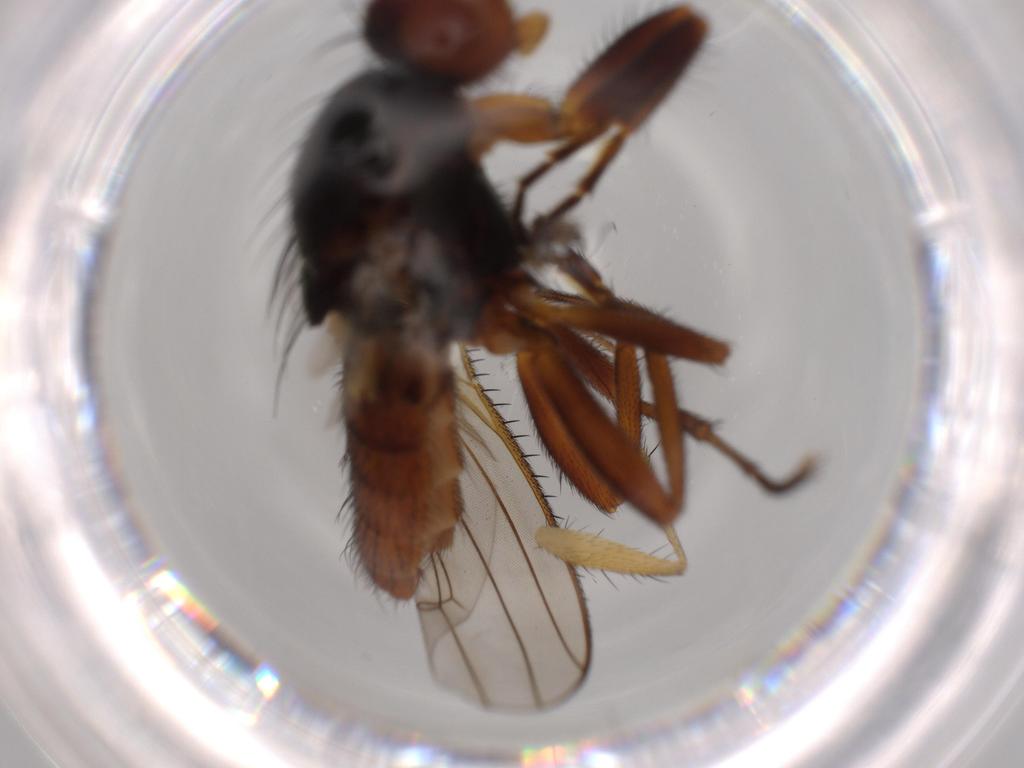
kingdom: Animalia
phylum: Arthropoda
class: Insecta
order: Diptera
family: Heleomyzidae
